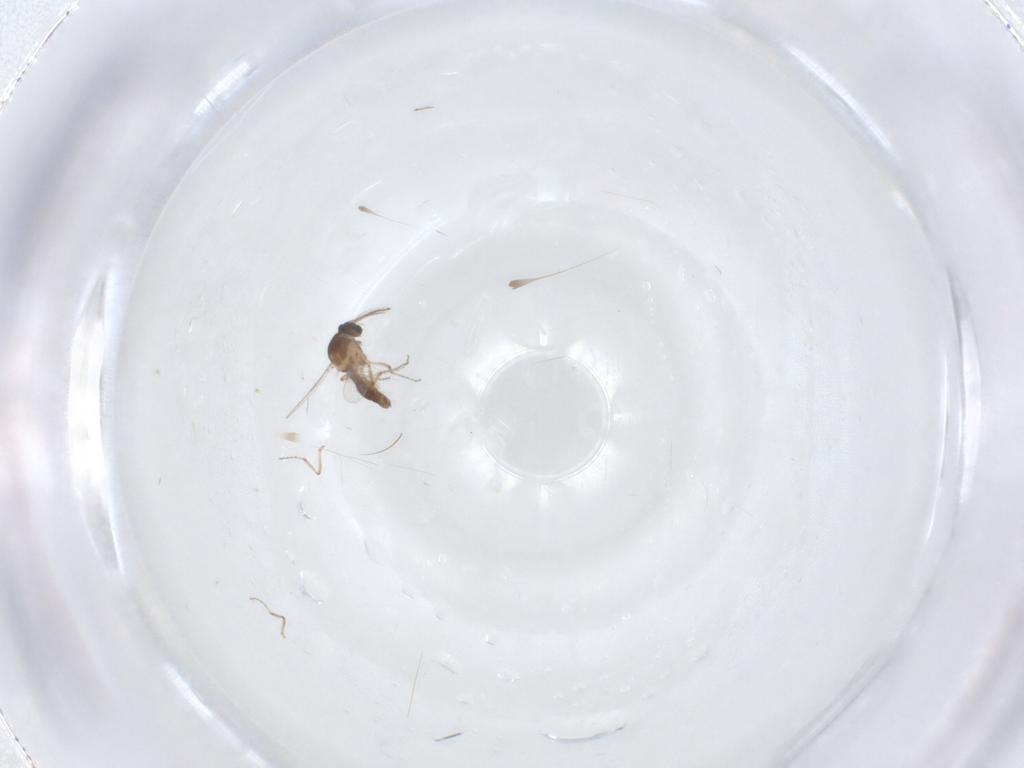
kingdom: Animalia
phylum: Arthropoda
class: Insecta
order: Diptera
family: Cecidomyiidae
